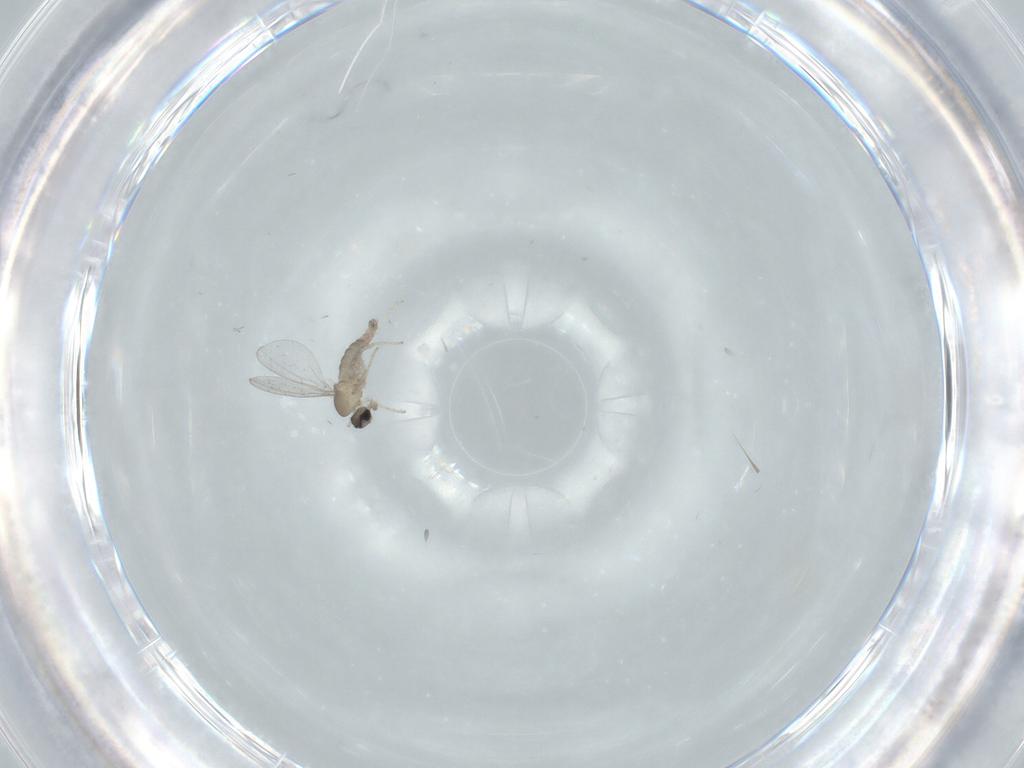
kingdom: Animalia
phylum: Arthropoda
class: Insecta
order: Diptera
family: Cecidomyiidae
